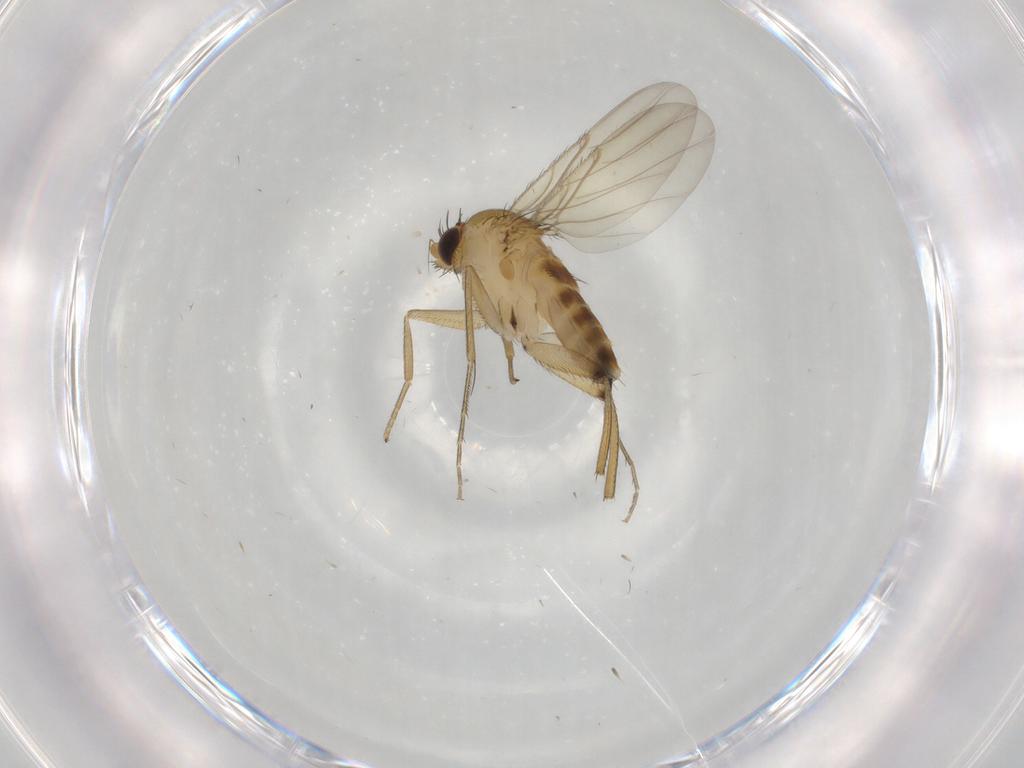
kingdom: Animalia
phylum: Arthropoda
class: Insecta
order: Diptera
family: Phoridae
